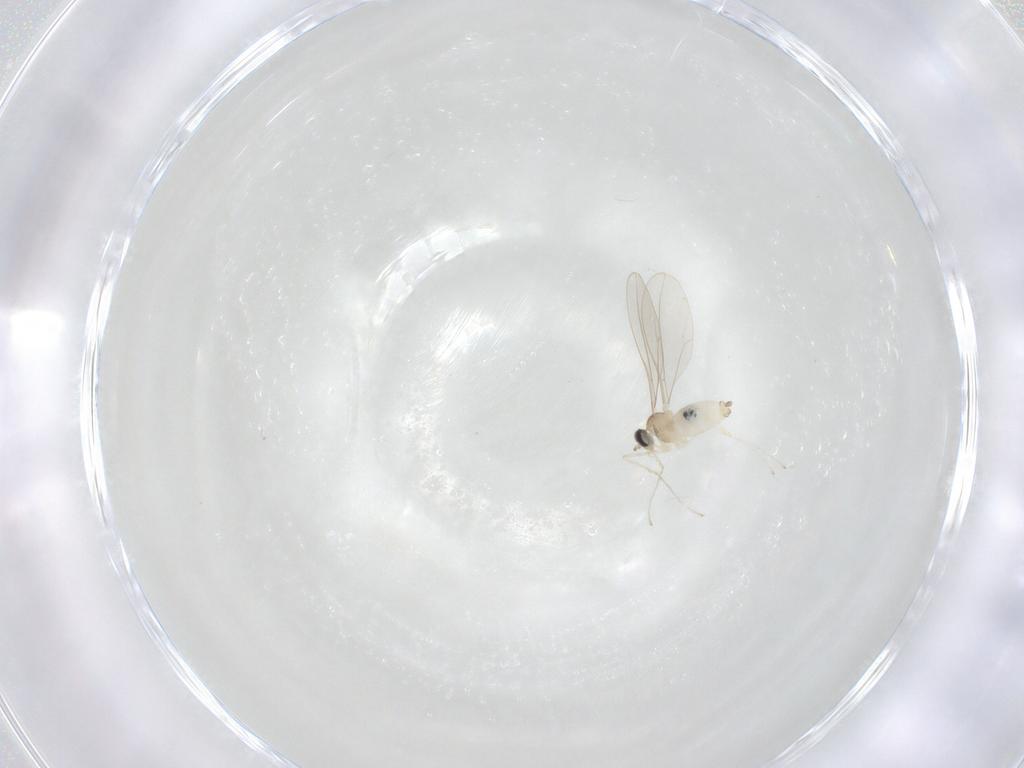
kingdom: Animalia
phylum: Arthropoda
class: Insecta
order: Diptera
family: Cecidomyiidae
